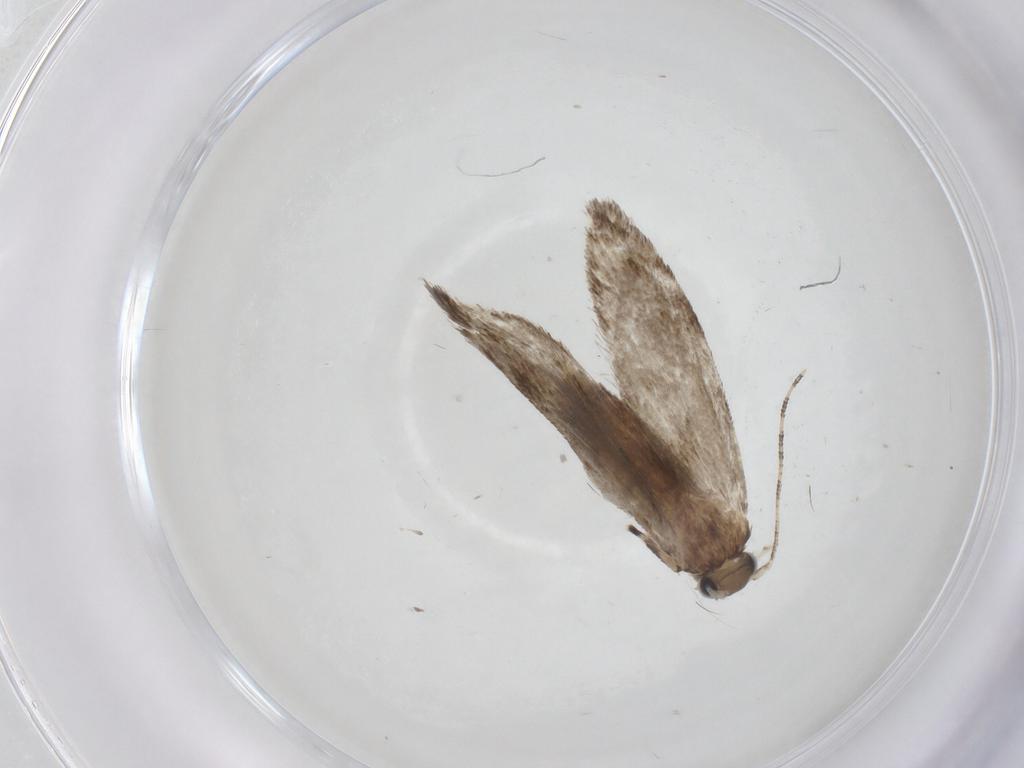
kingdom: Animalia
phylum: Arthropoda
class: Insecta
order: Lepidoptera
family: Tineidae
